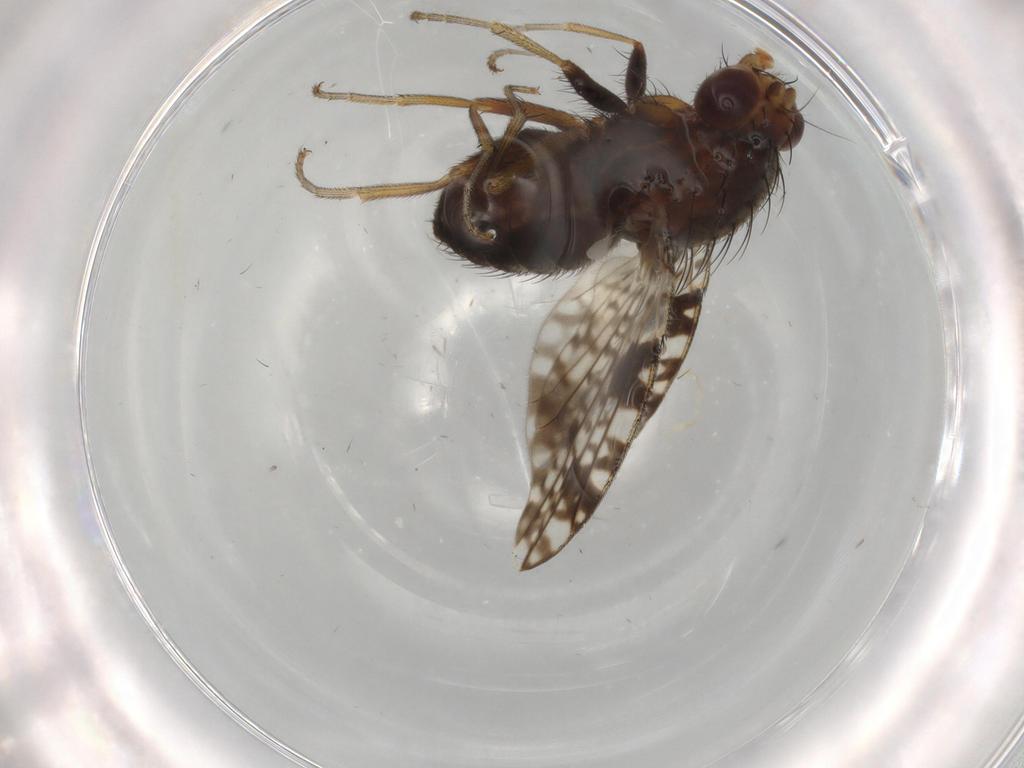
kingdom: Animalia
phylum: Arthropoda
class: Insecta
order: Diptera
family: Tephritidae
